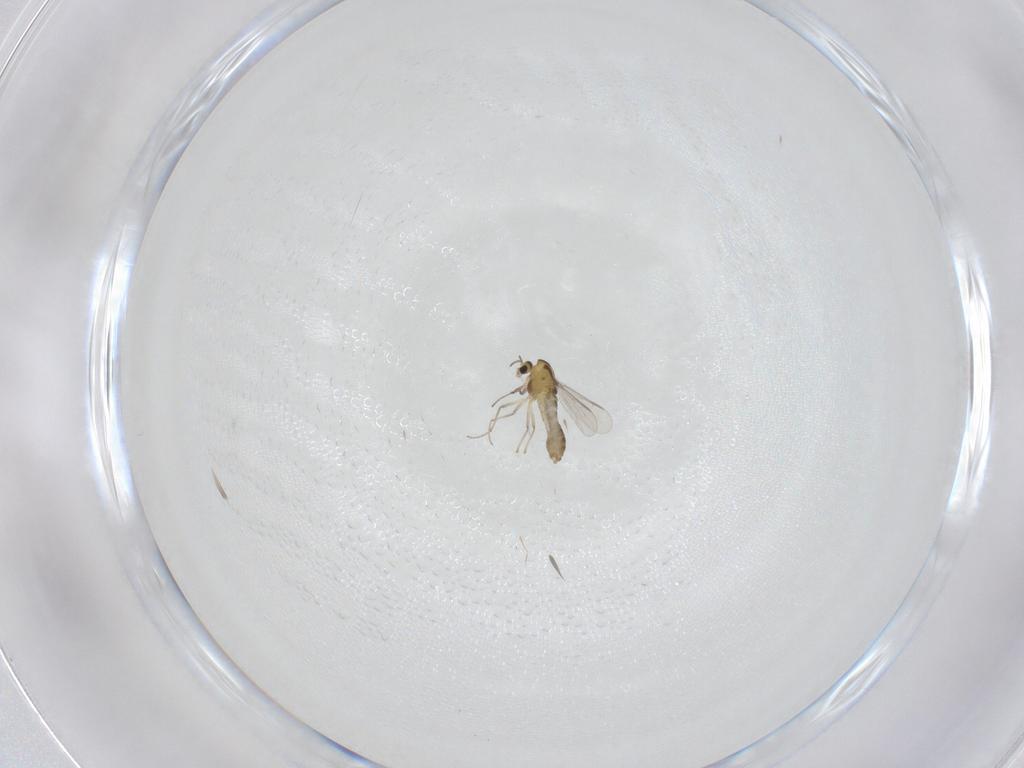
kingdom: Animalia
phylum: Arthropoda
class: Insecta
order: Diptera
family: Chironomidae
